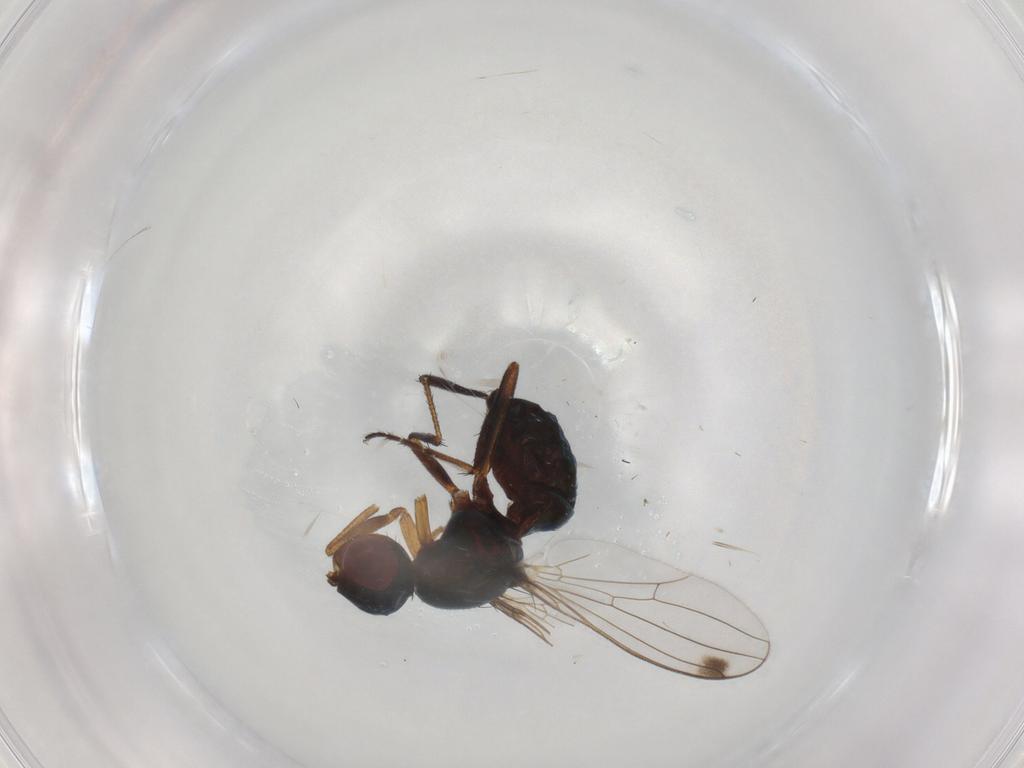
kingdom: Animalia
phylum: Arthropoda
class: Insecta
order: Diptera
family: Sepsidae
